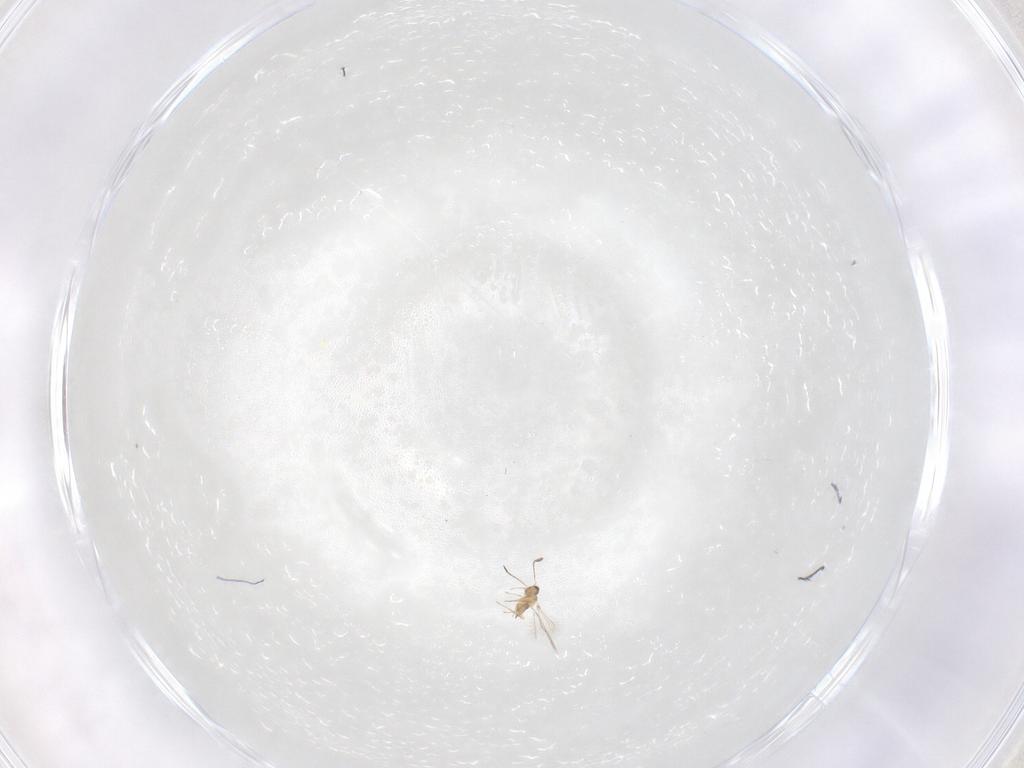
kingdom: Animalia
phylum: Arthropoda
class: Insecta
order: Hymenoptera
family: Mymaridae
